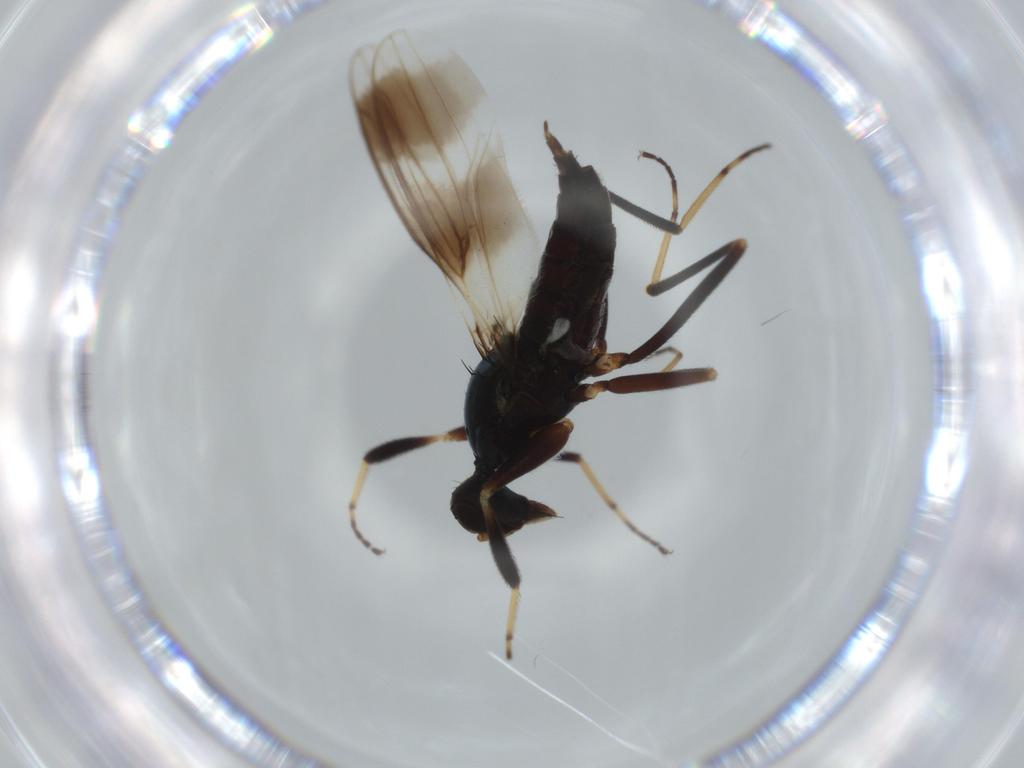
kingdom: Animalia
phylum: Arthropoda
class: Insecta
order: Diptera
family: Hybotidae
